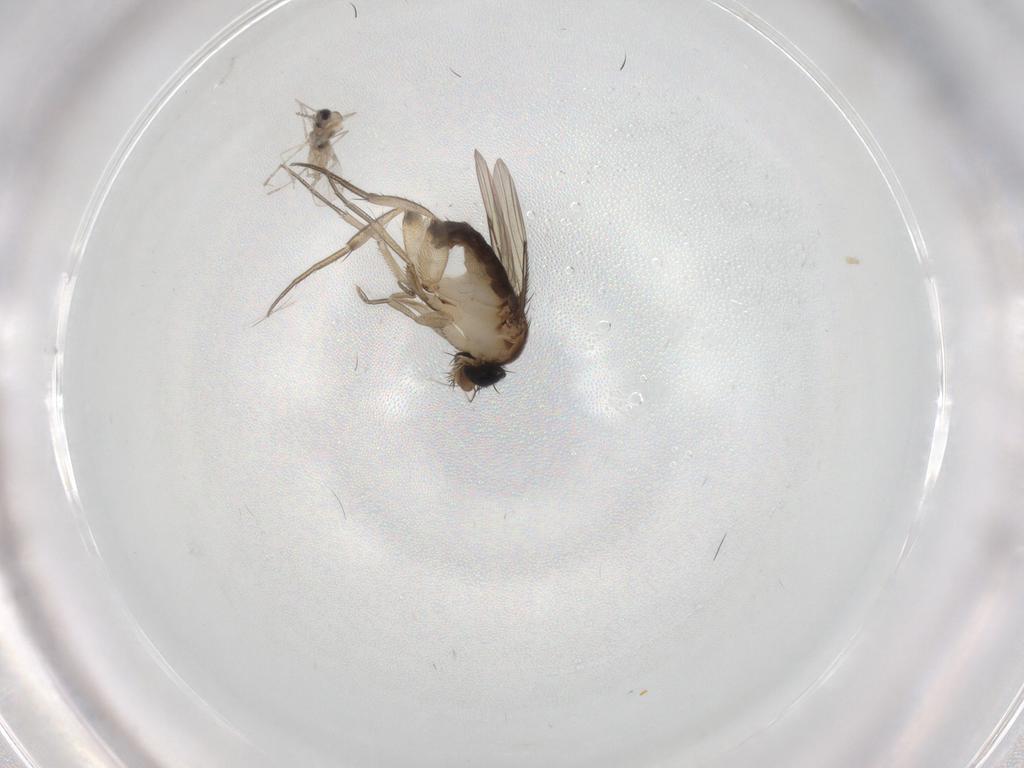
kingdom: Animalia
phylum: Arthropoda
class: Insecta
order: Diptera
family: Phoridae
